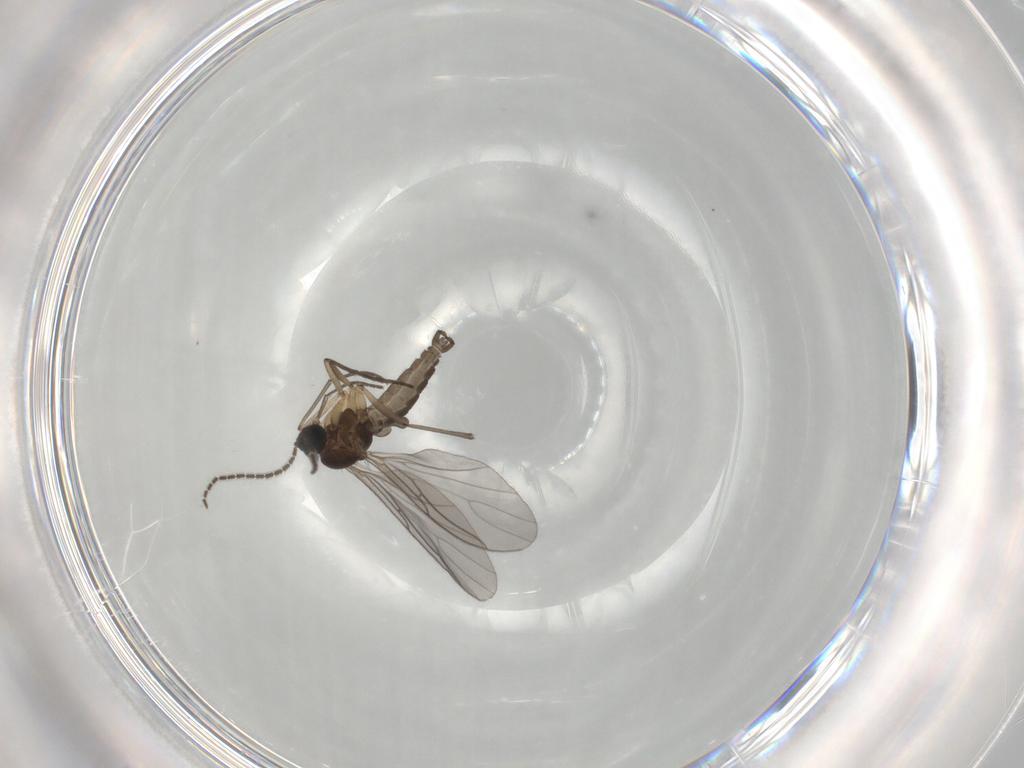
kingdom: Animalia
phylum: Arthropoda
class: Insecta
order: Diptera
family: Sciaridae
